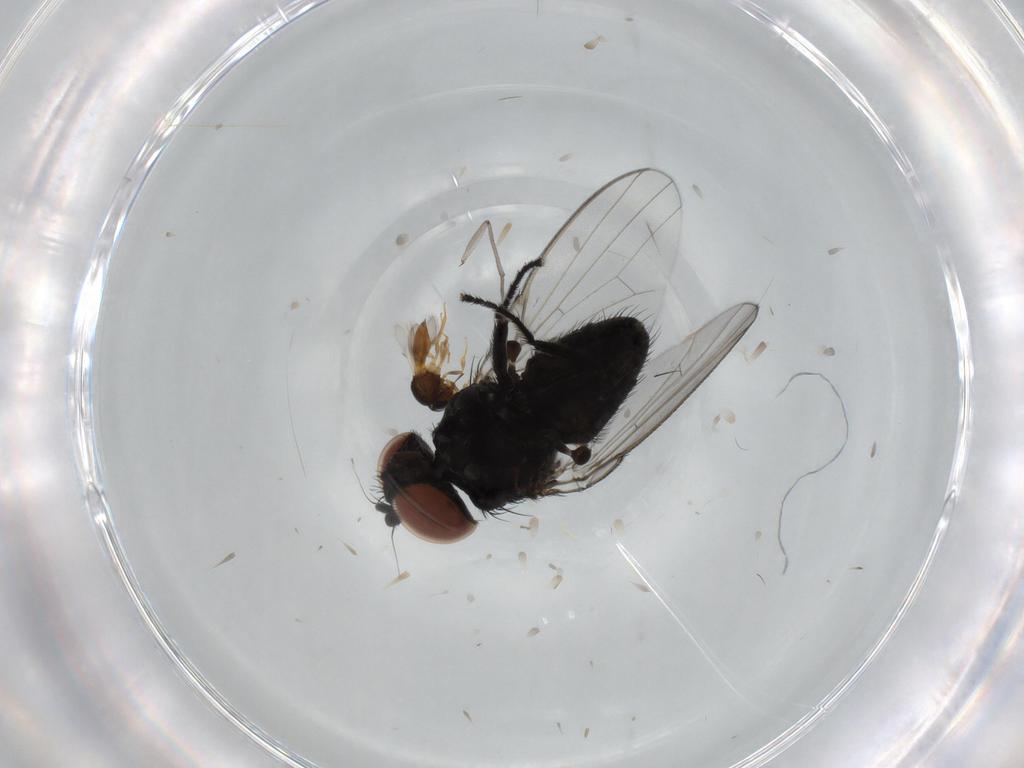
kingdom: Animalia
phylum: Arthropoda
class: Insecta
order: Diptera
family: Milichiidae
